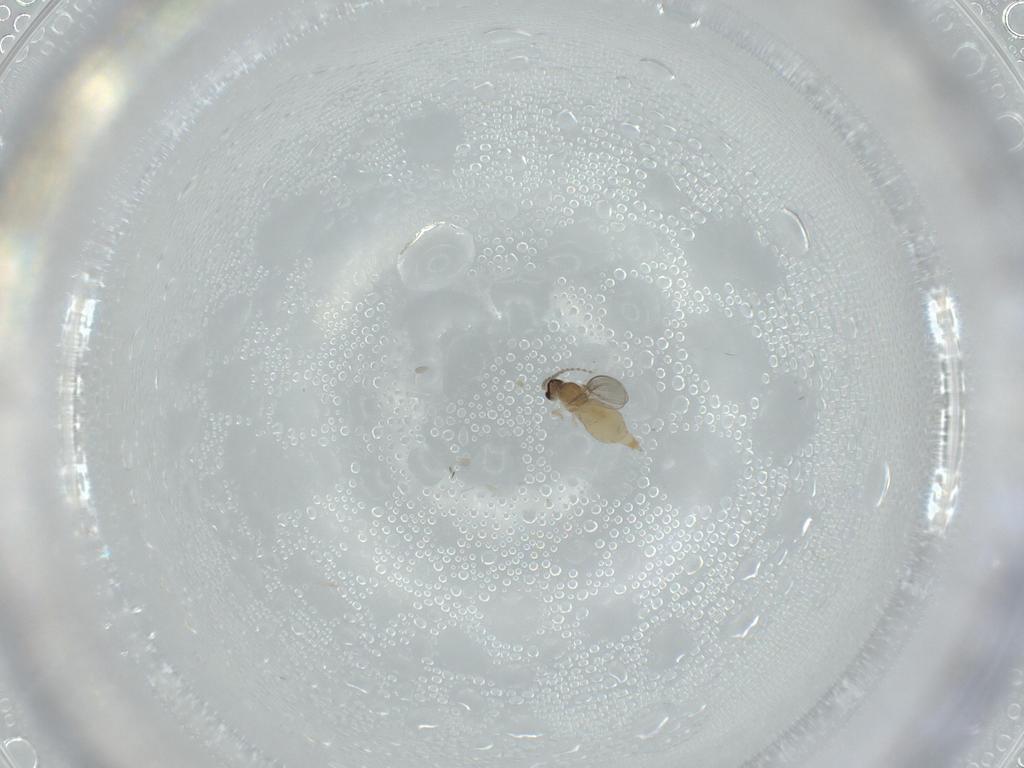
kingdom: Animalia
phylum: Arthropoda
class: Insecta
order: Diptera
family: Cecidomyiidae
